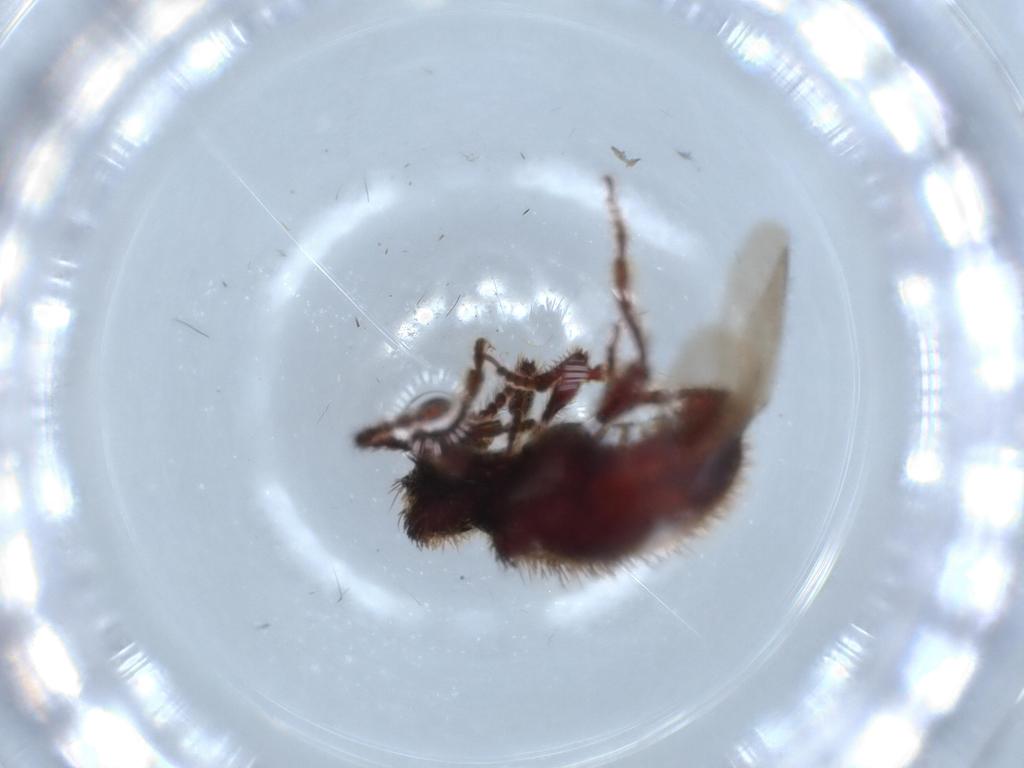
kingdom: Animalia
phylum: Arthropoda
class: Insecta
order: Coleoptera
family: Ptinidae
